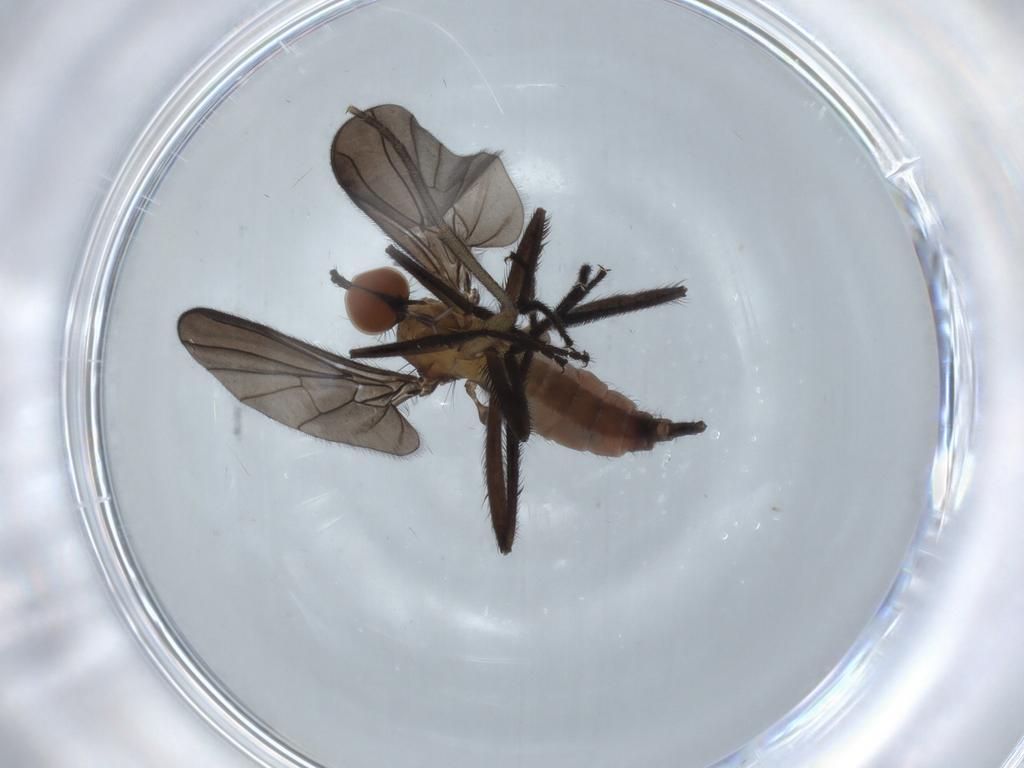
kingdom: Animalia
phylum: Arthropoda
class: Insecta
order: Diptera
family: Empididae
